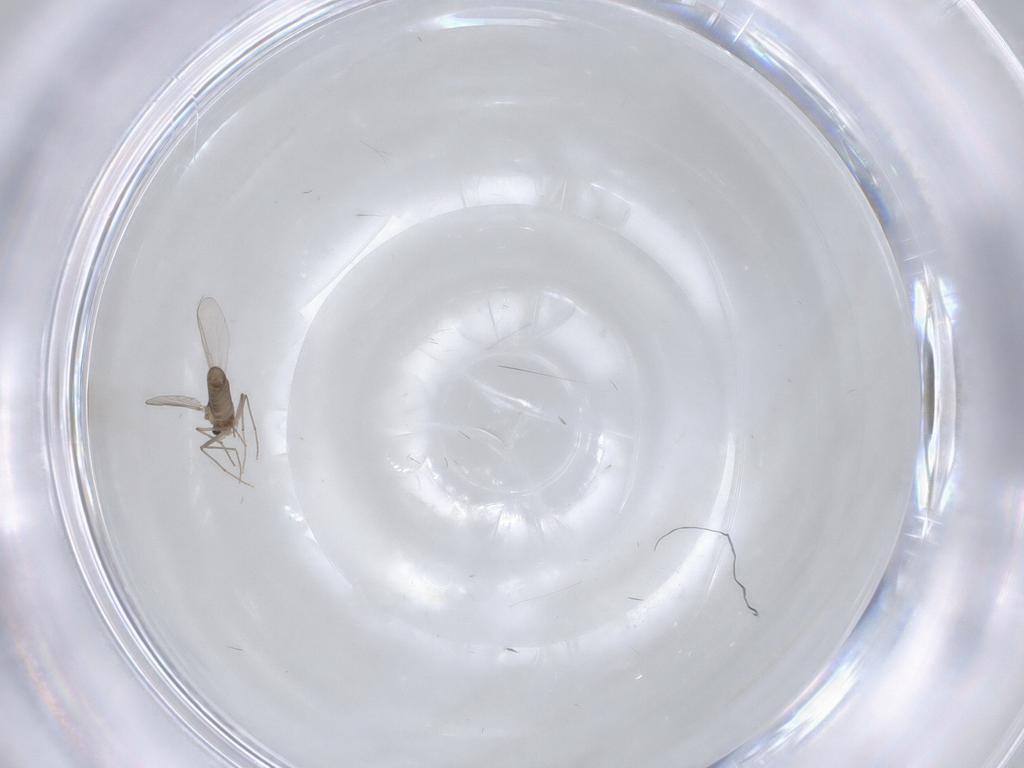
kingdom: Animalia
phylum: Arthropoda
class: Insecta
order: Diptera
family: Chironomidae
